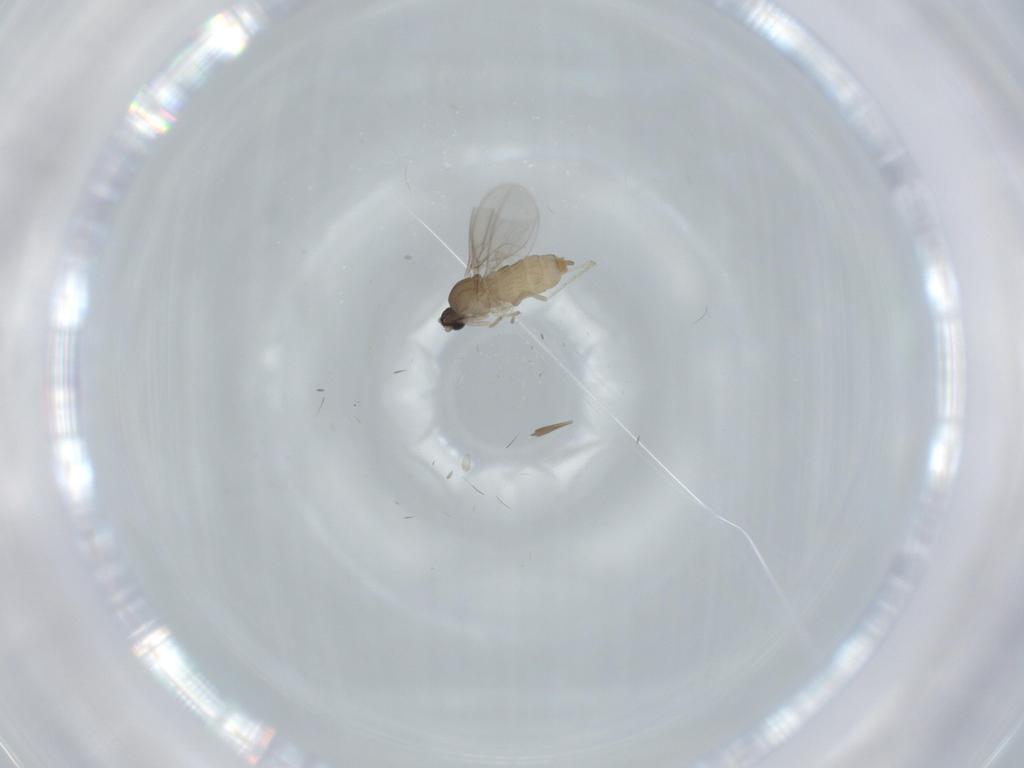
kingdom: Animalia
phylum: Arthropoda
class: Insecta
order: Diptera
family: Cecidomyiidae
